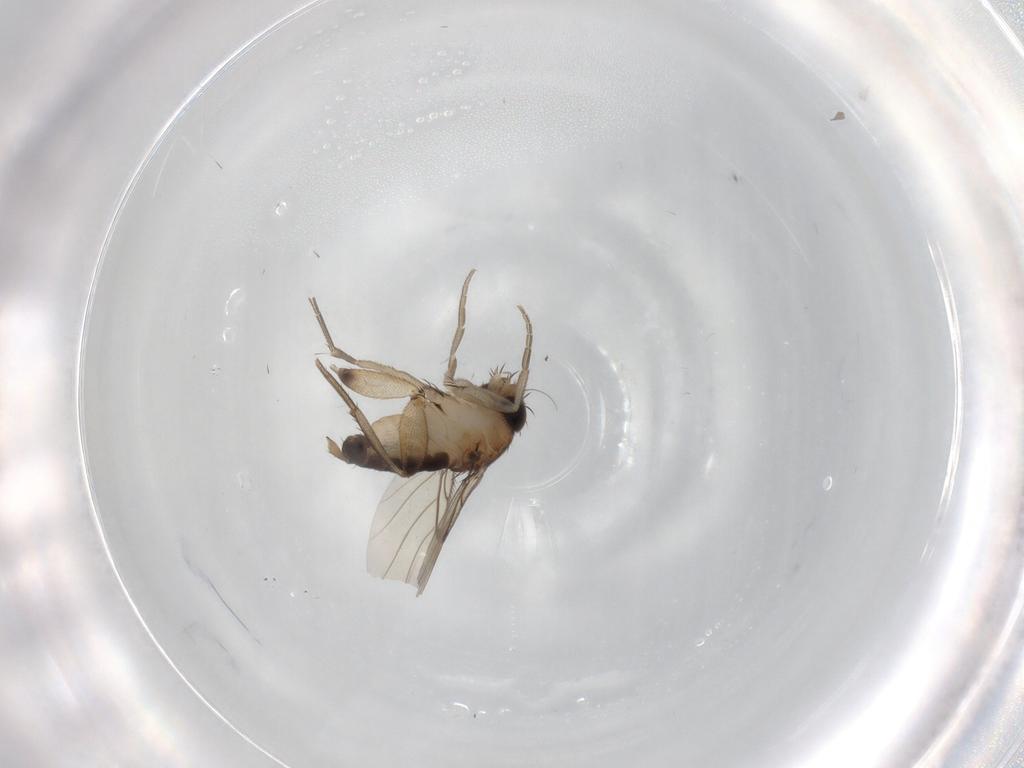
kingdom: Animalia
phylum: Arthropoda
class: Insecta
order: Diptera
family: Phoridae
